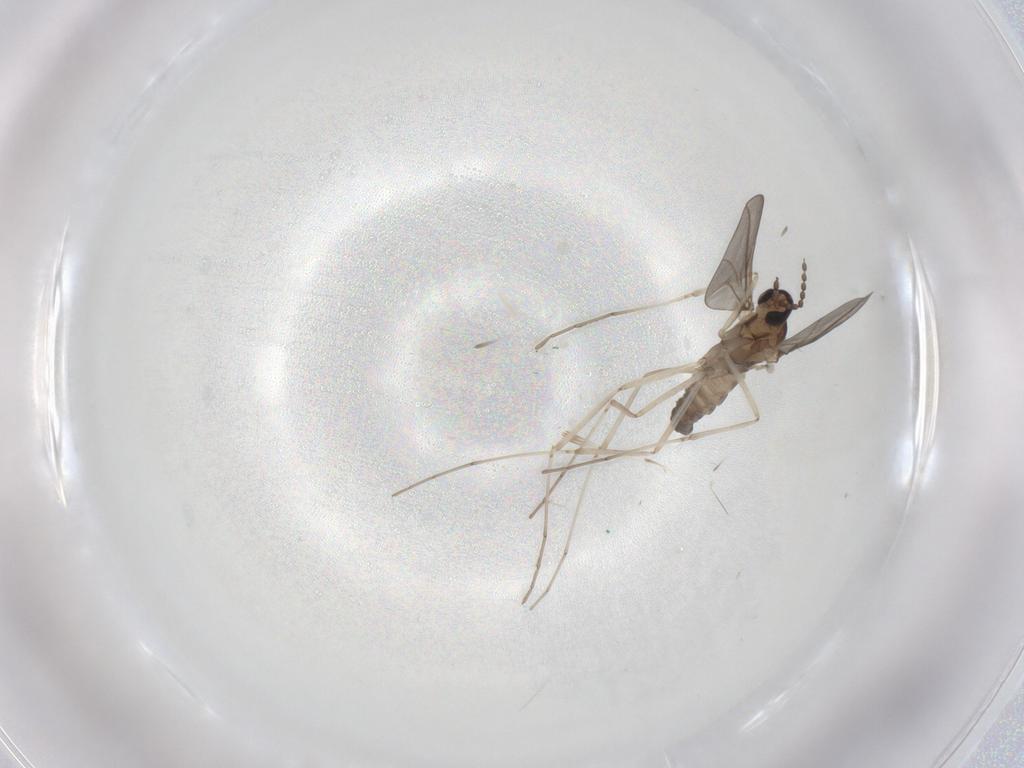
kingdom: Animalia
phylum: Arthropoda
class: Insecta
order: Diptera
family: Cecidomyiidae
